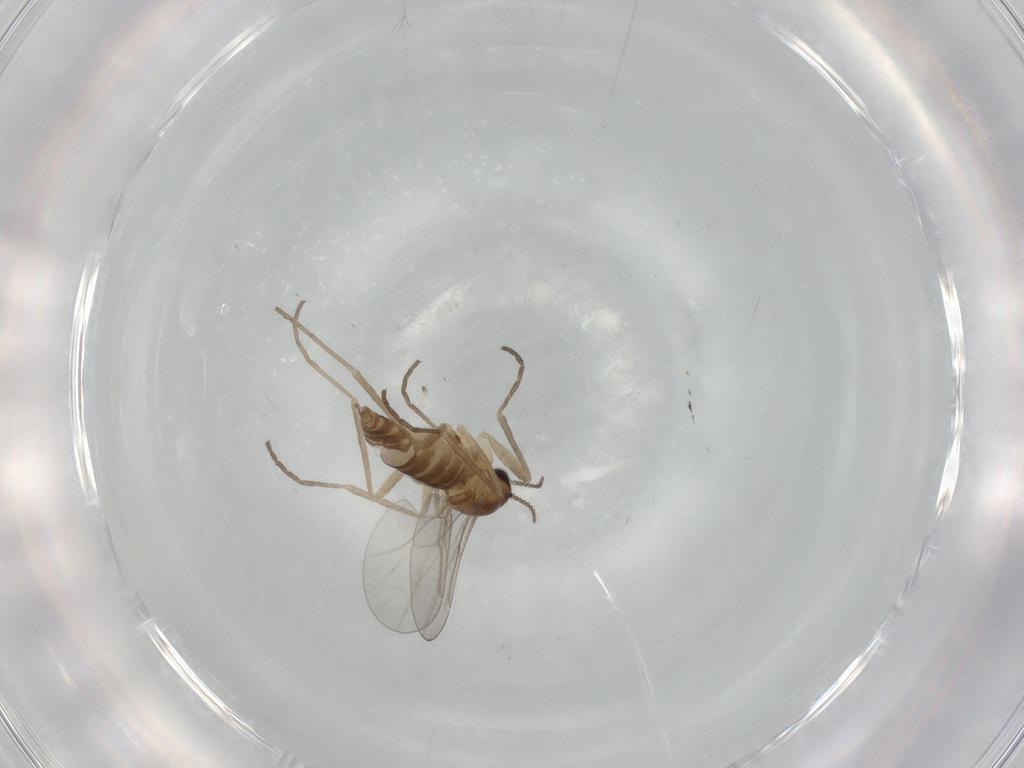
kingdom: Animalia
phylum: Arthropoda
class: Insecta
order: Diptera
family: Cecidomyiidae
